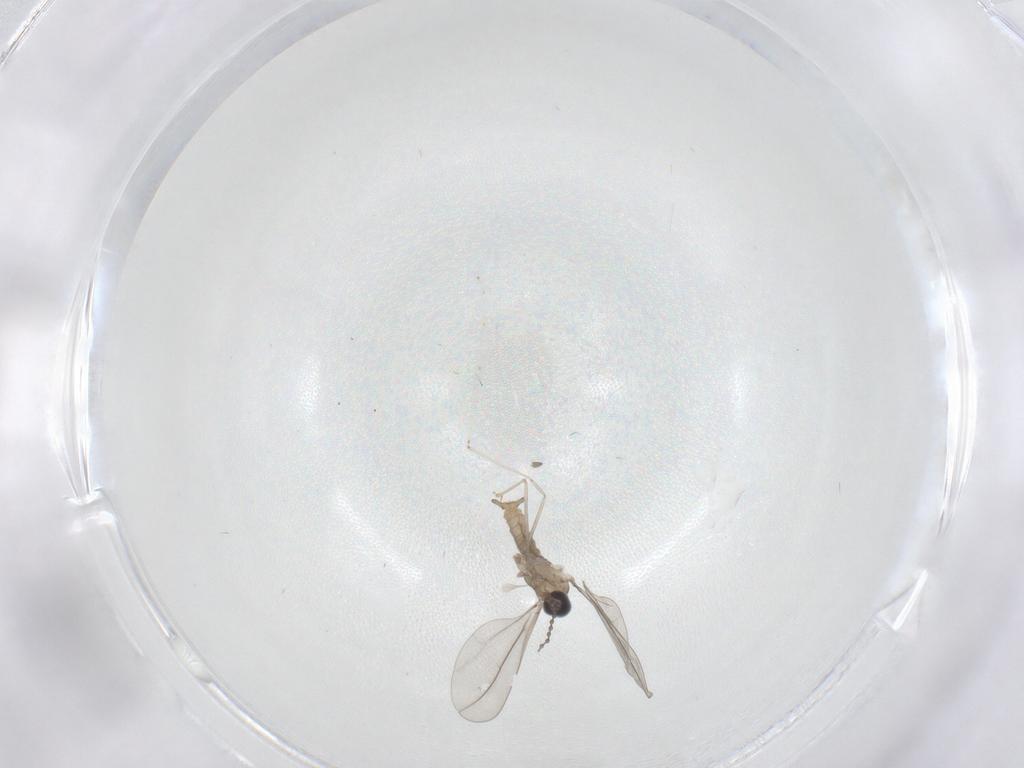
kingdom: Animalia
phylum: Arthropoda
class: Insecta
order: Diptera
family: Cecidomyiidae
